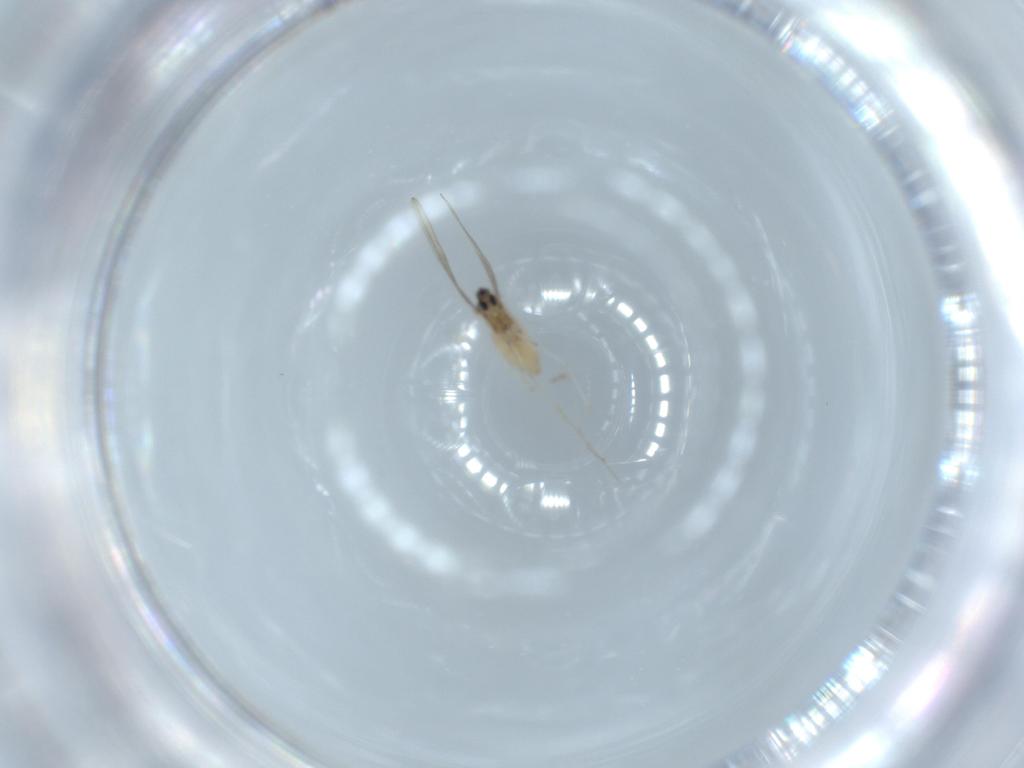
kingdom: Animalia
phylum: Arthropoda
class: Insecta
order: Diptera
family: Cecidomyiidae
